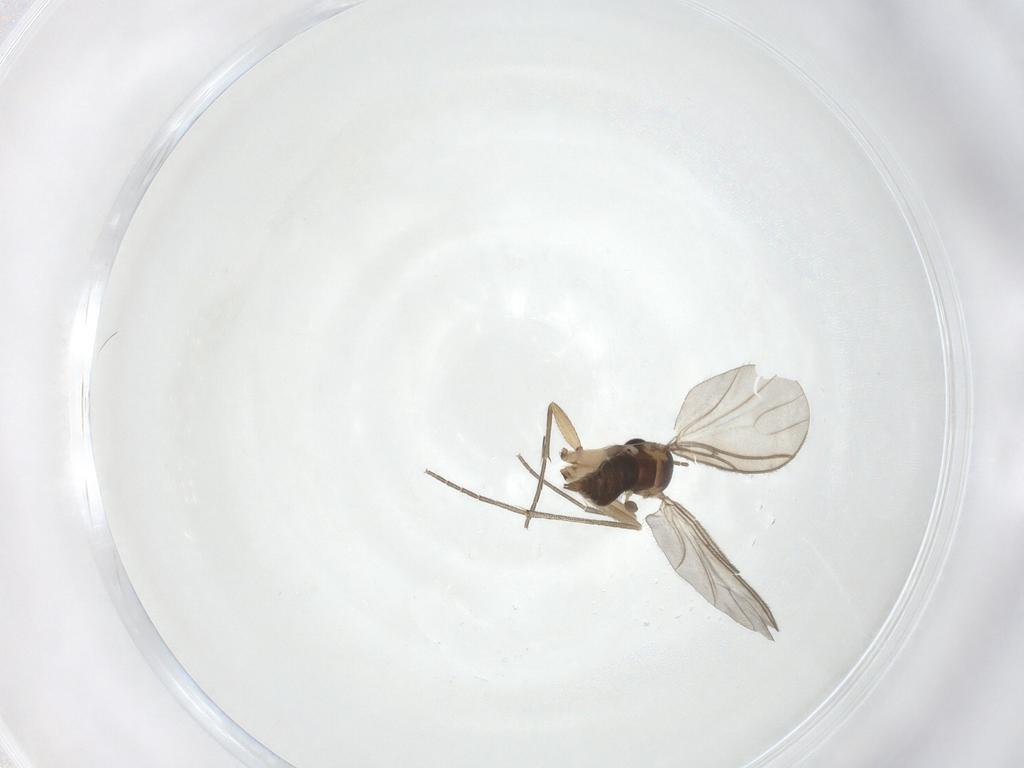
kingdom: Animalia
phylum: Arthropoda
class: Insecta
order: Diptera
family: Sciaridae
